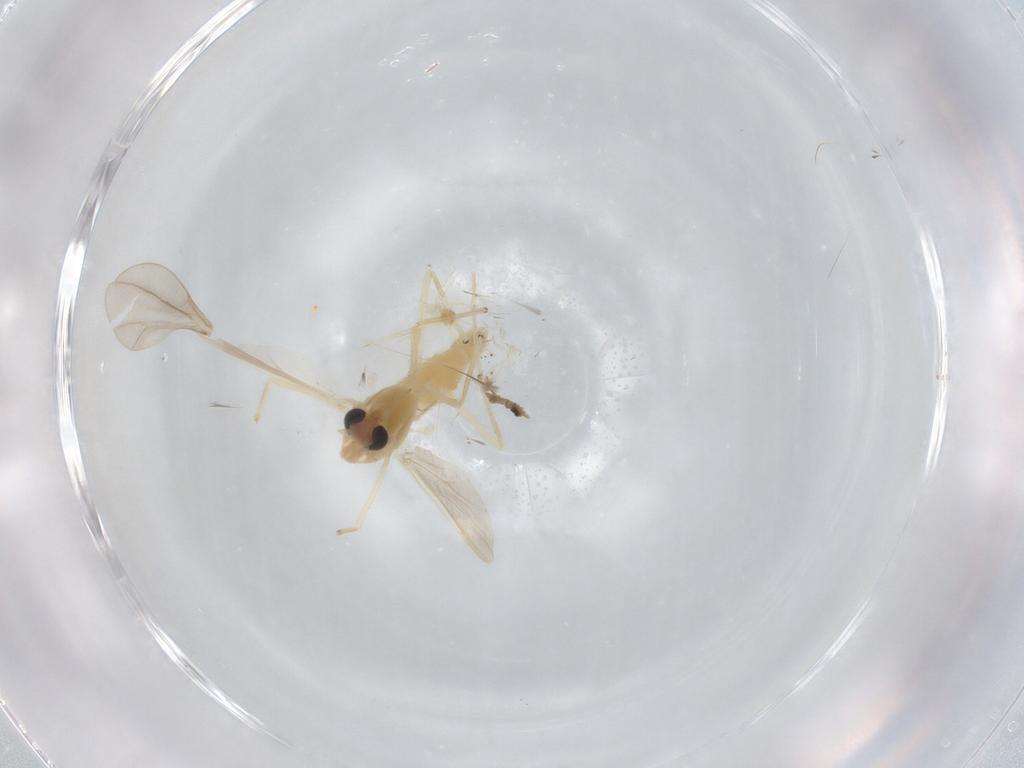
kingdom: Animalia
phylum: Arthropoda
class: Insecta
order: Diptera
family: Chironomidae
